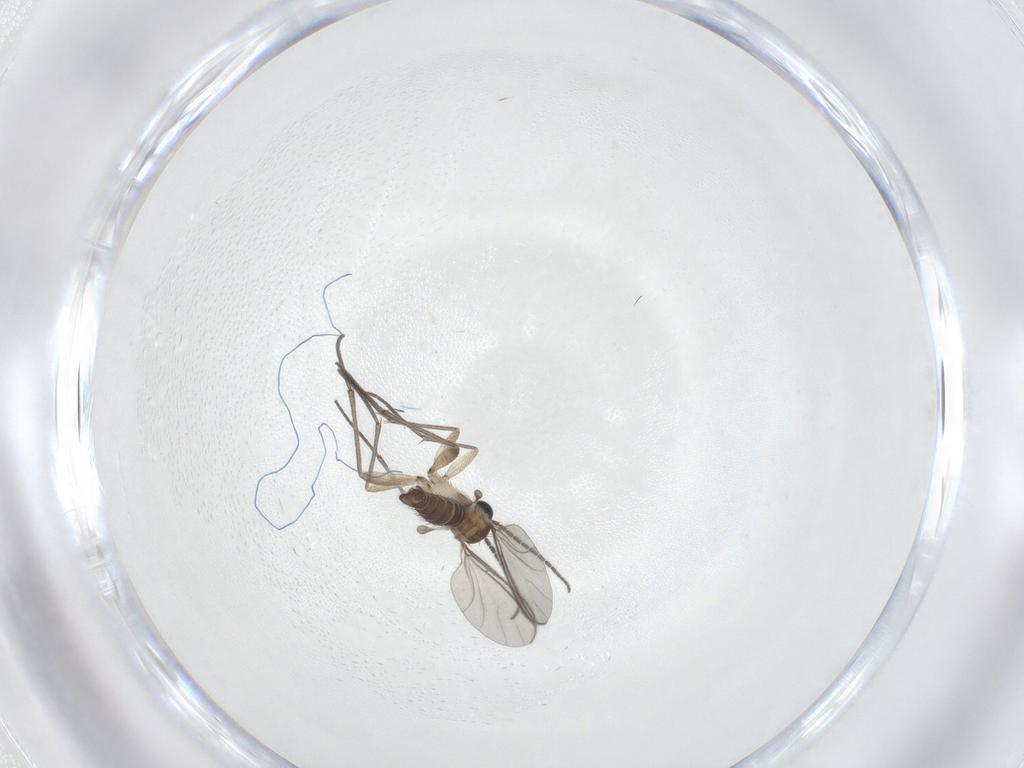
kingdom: Animalia
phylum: Arthropoda
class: Insecta
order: Diptera
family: Sciaridae
